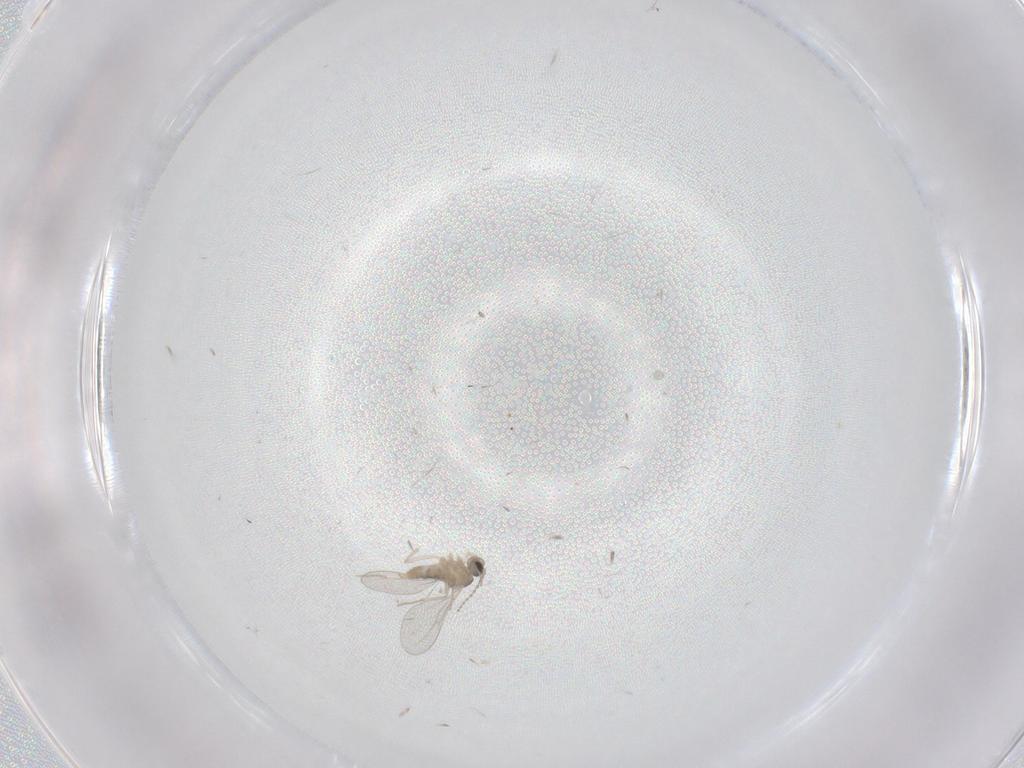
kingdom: Animalia
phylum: Arthropoda
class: Insecta
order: Diptera
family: Cecidomyiidae
